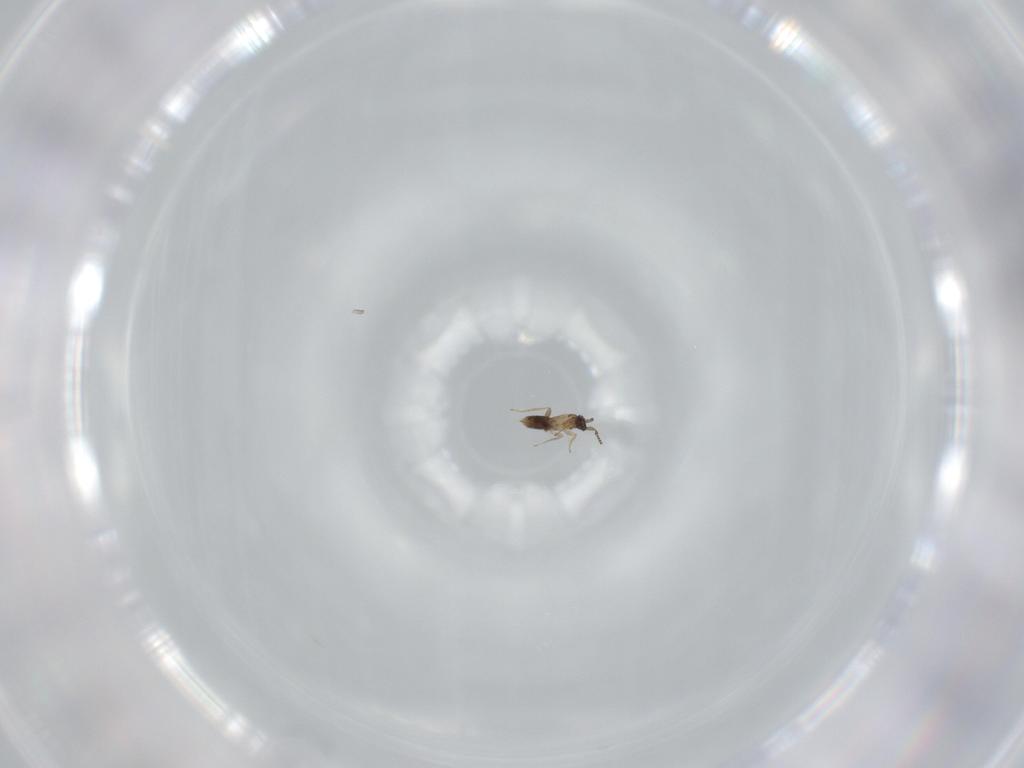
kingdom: Animalia
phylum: Arthropoda
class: Insecta
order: Hymenoptera
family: Mymaridae
